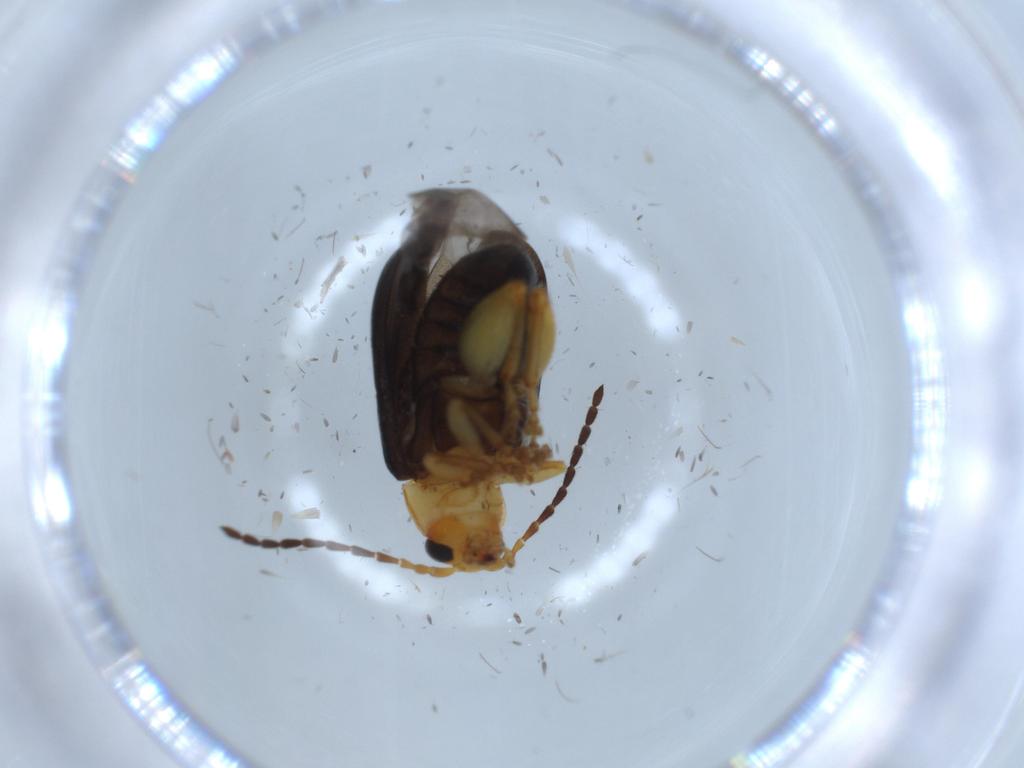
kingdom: Animalia
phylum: Arthropoda
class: Insecta
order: Coleoptera
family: Chrysomelidae
